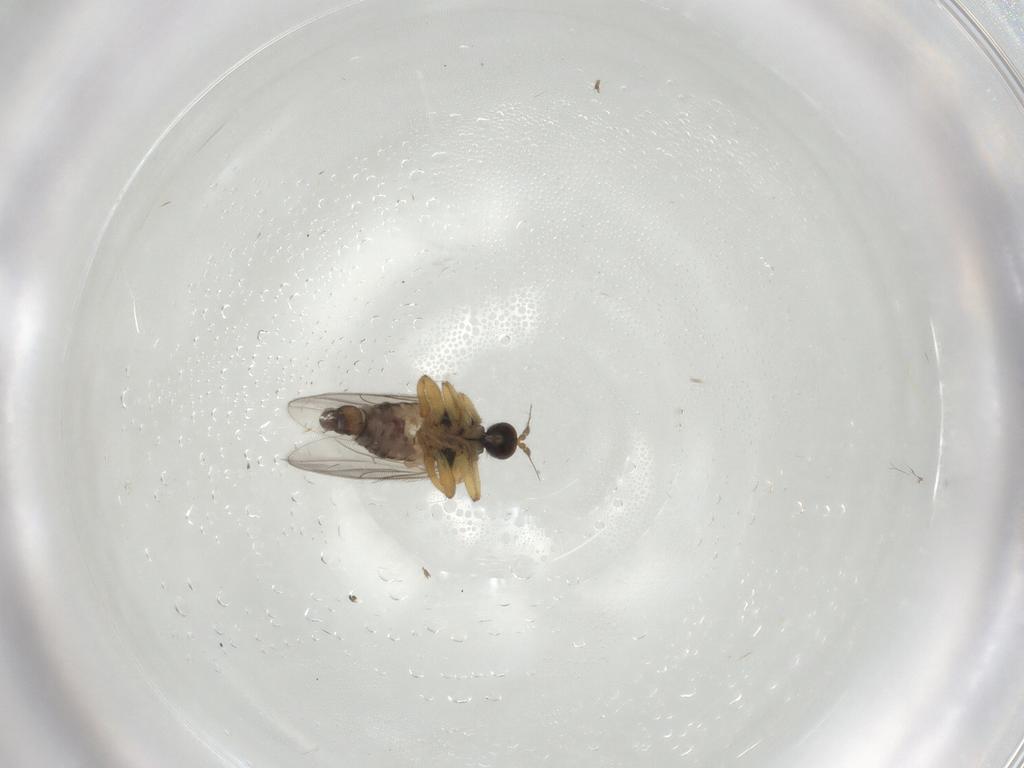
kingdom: Animalia
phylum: Arthropoda
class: Insecta
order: Diptera
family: Hybotidae
